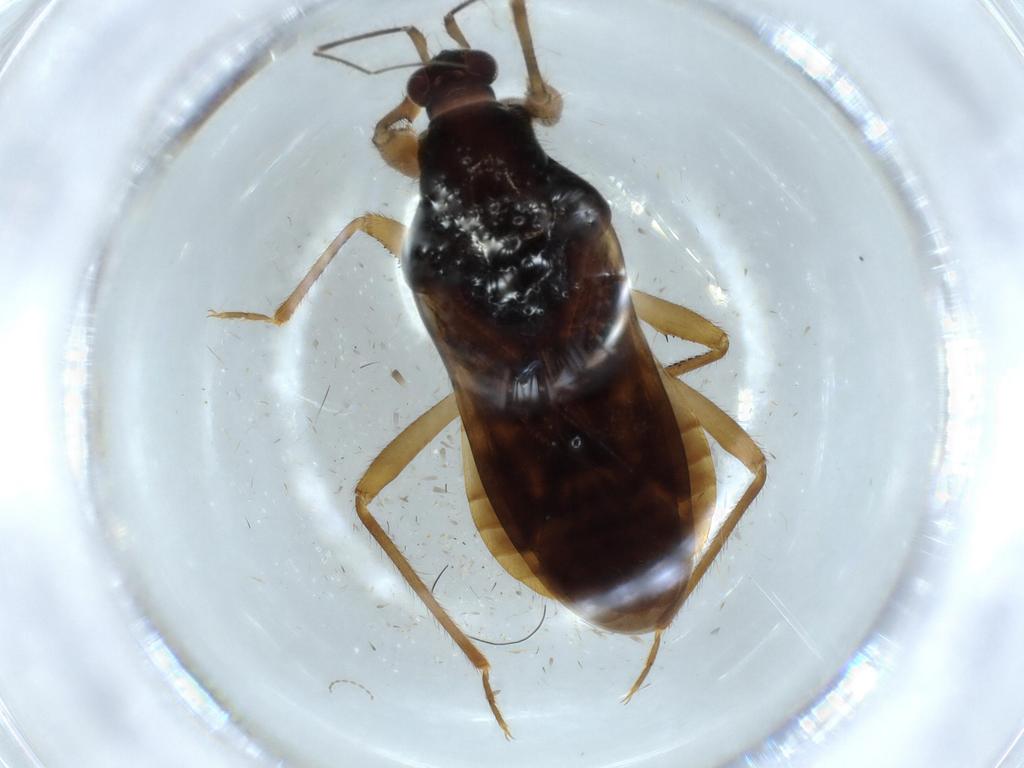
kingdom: Animalia
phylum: Arthropoda
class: Insecta
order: Hemiptera
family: Nabidae
